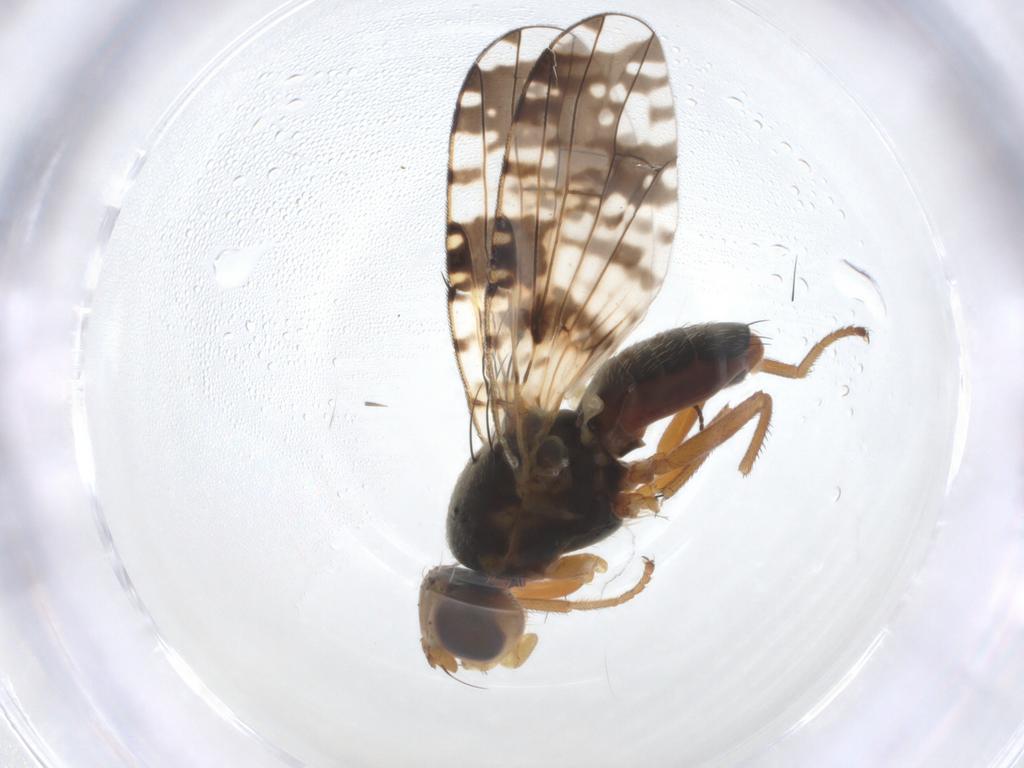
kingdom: Animalia
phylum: Arthropoda
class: Insecta
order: Diptera
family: Tephritidae
